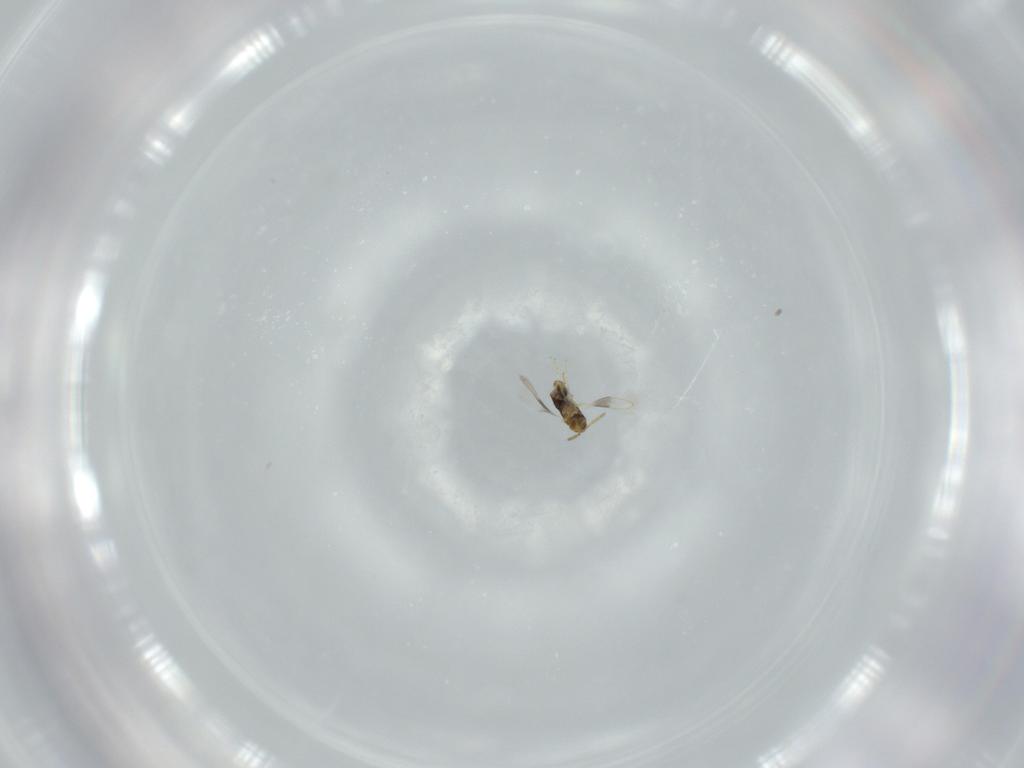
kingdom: Animalia
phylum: Arthropoda
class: Insecta
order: Hymenoptera
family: Aphelinidae
